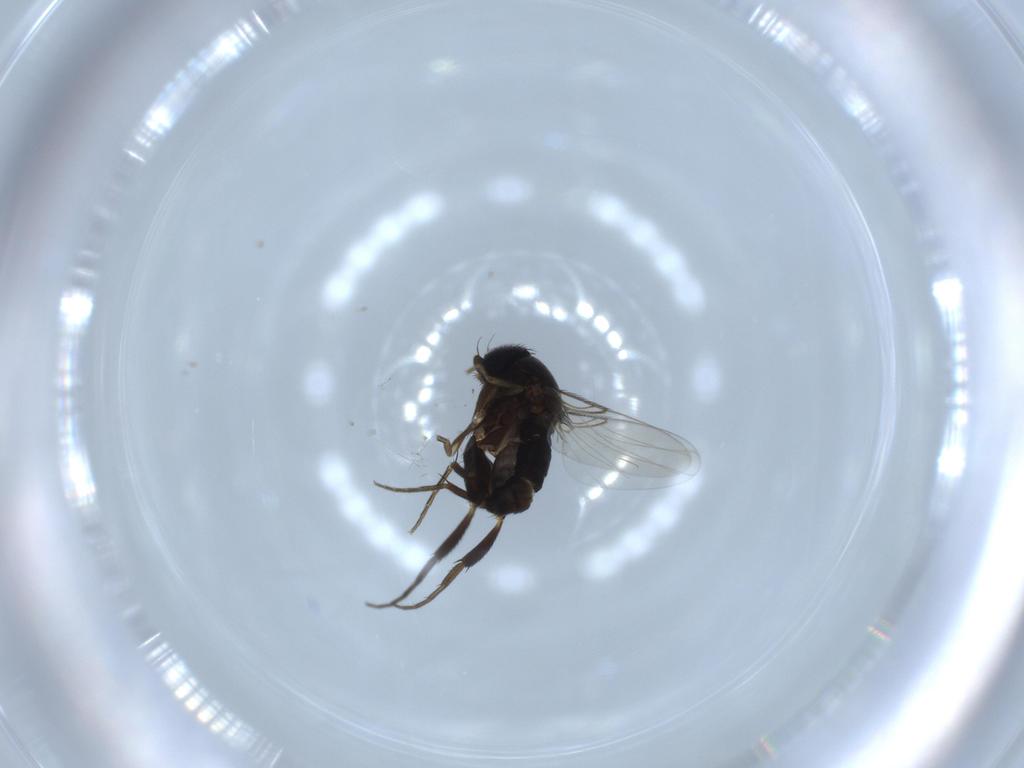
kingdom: Animalia
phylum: Arthropoda
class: Insecta
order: Diptera
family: Phoridae
